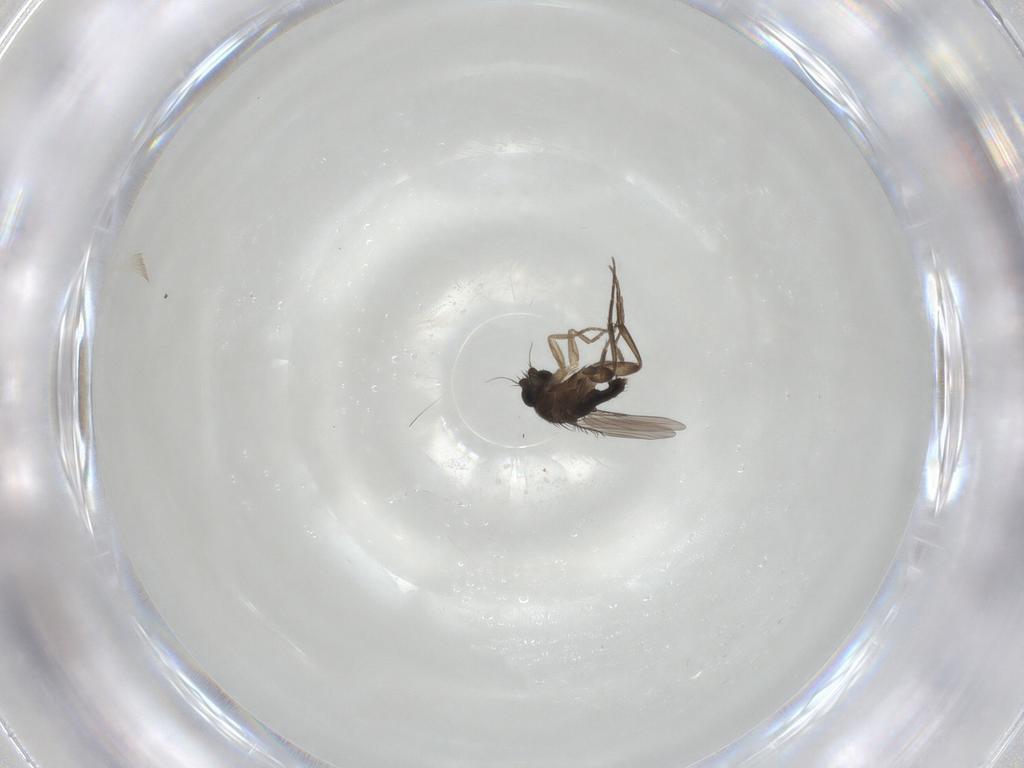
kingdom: Animalia
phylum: Arthropoda
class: Insecta
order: Diptera
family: Phoridae
